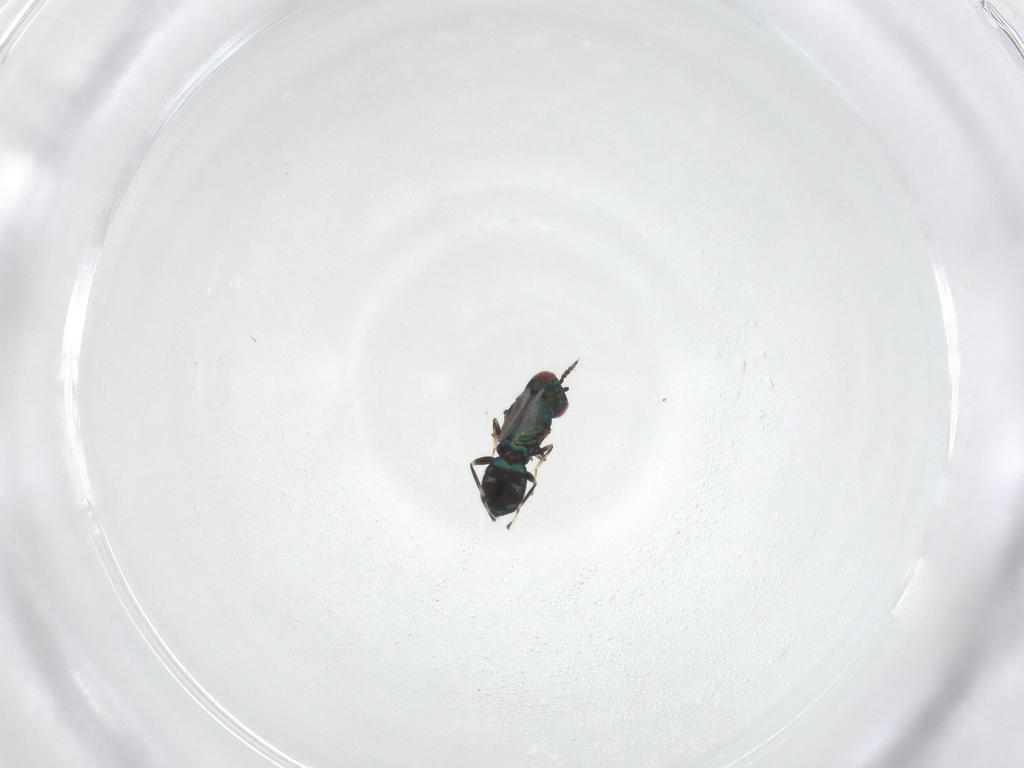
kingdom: Animalia
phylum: Arthropoda
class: Insecta
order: Hymenoptera
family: Eulophidae
